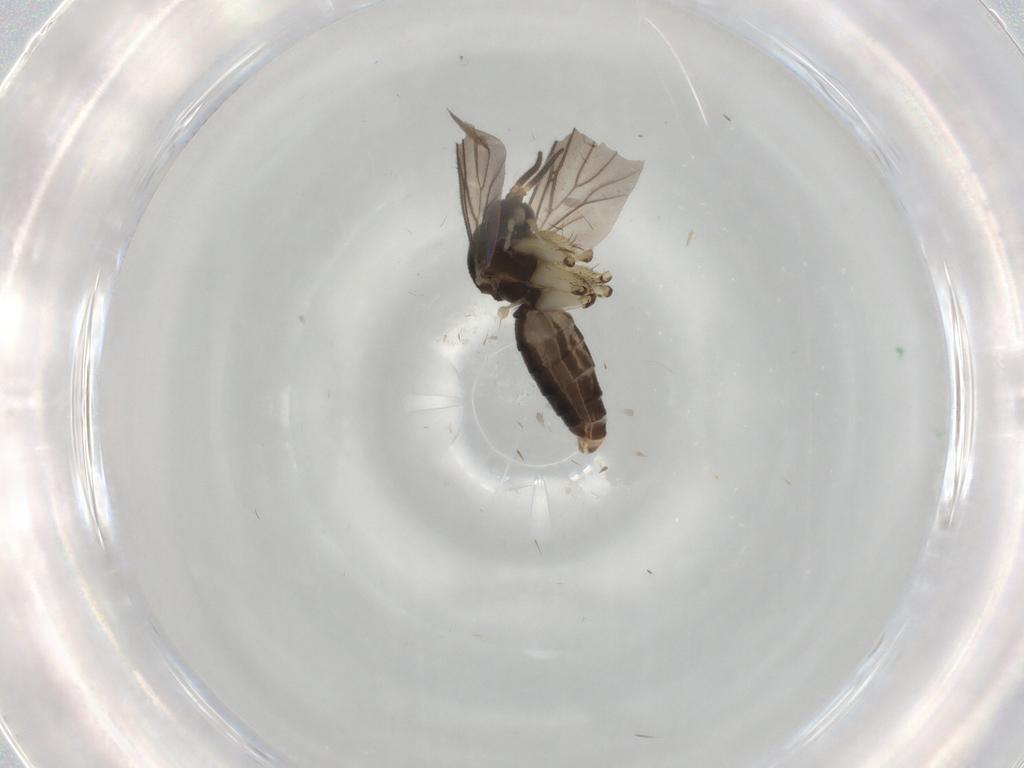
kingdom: Animalia
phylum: Arthropoda
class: Insecta
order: Diptera
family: Mycetophilidae
